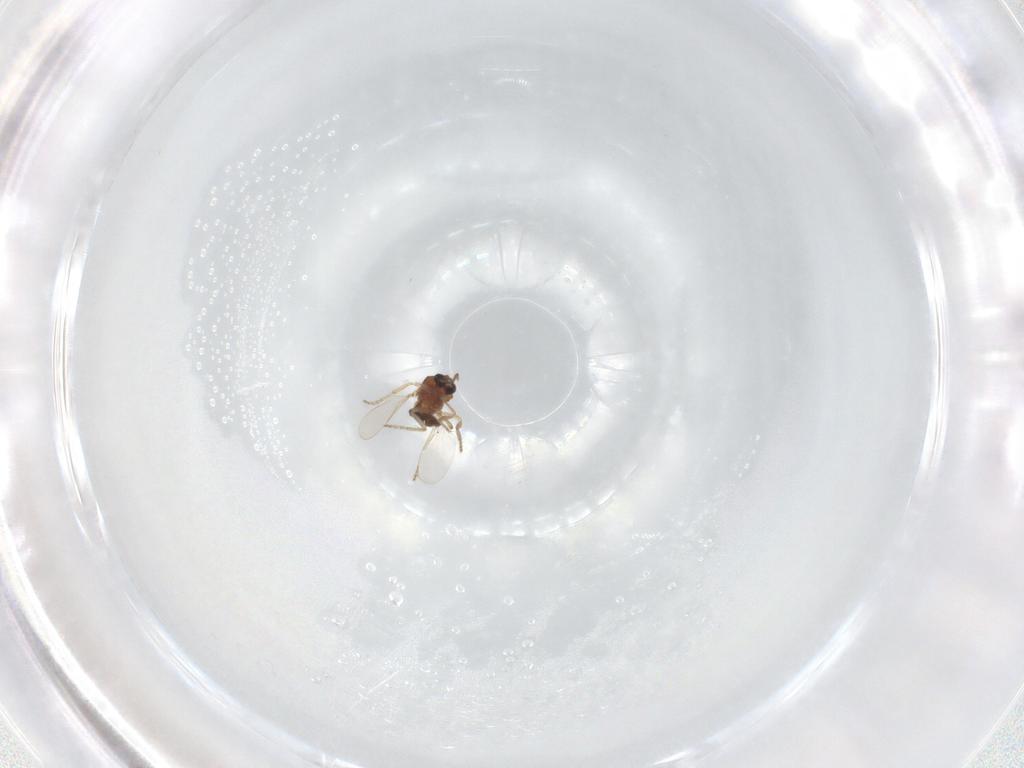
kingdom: Animalia
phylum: Arthropoda
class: Insecta
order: Diptera
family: Ceratopogonidae
